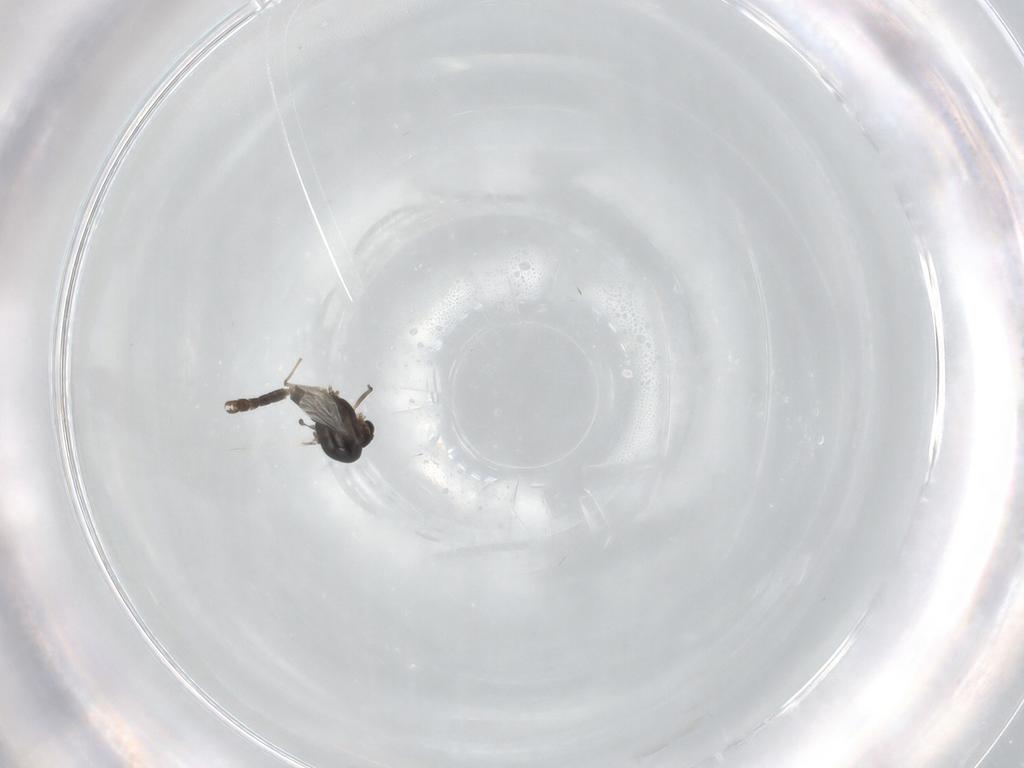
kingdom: Animalia
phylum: Arthropoda
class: Insecta
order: Diptera
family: Chironomidae
